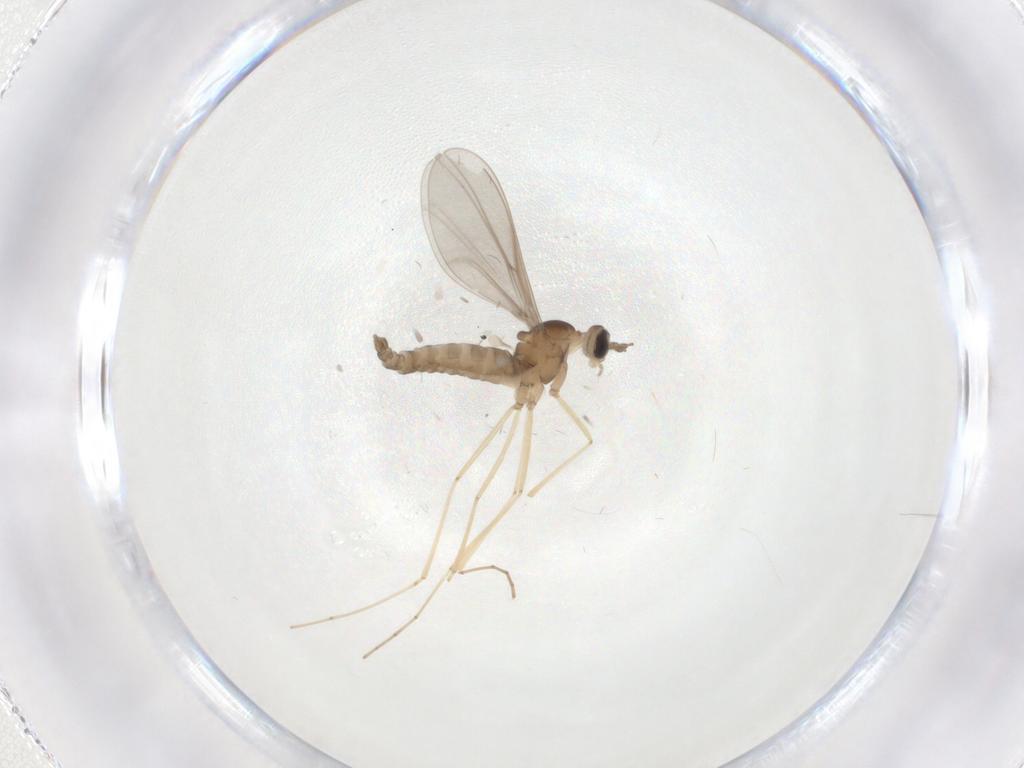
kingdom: Animalia
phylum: Arthropoda
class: Insecta
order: Diptera
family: Cecidomyiidae
